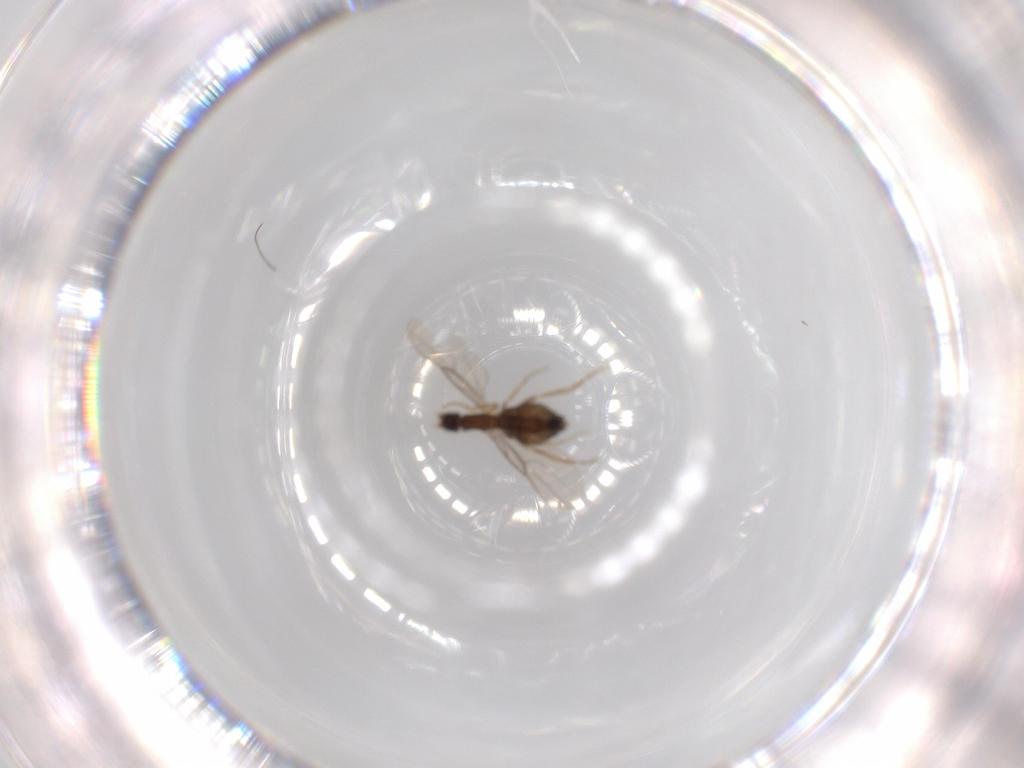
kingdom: Animalia
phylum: Arthropoda
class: Insecta
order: Diptera
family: Phoridae
